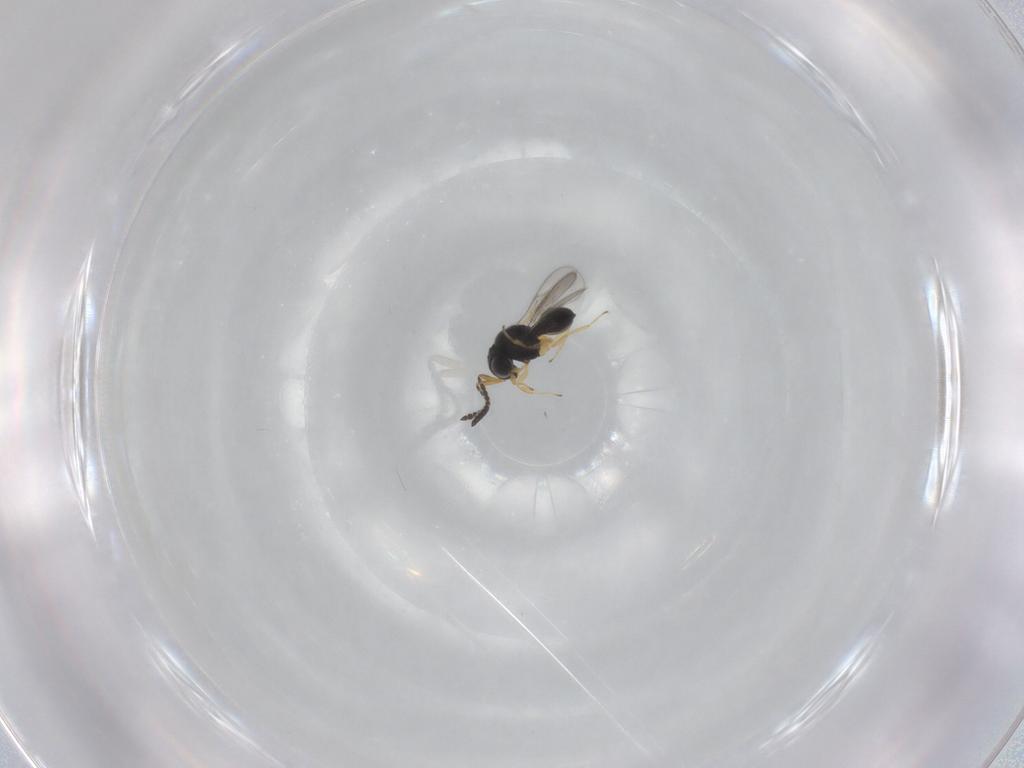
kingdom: Animalia
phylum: Arthropoda
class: Insecta
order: Hymenoptera
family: Scelionidae
